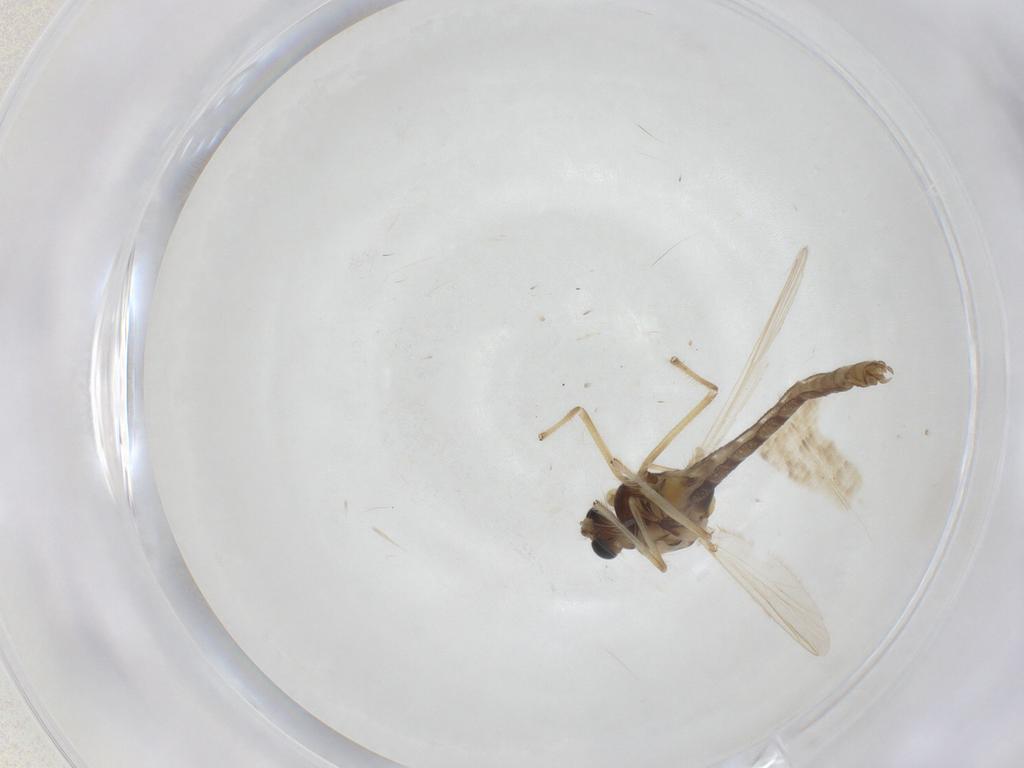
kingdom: Animalia
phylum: Arthropoda
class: Insecta
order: Diptera
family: Chironomidae
